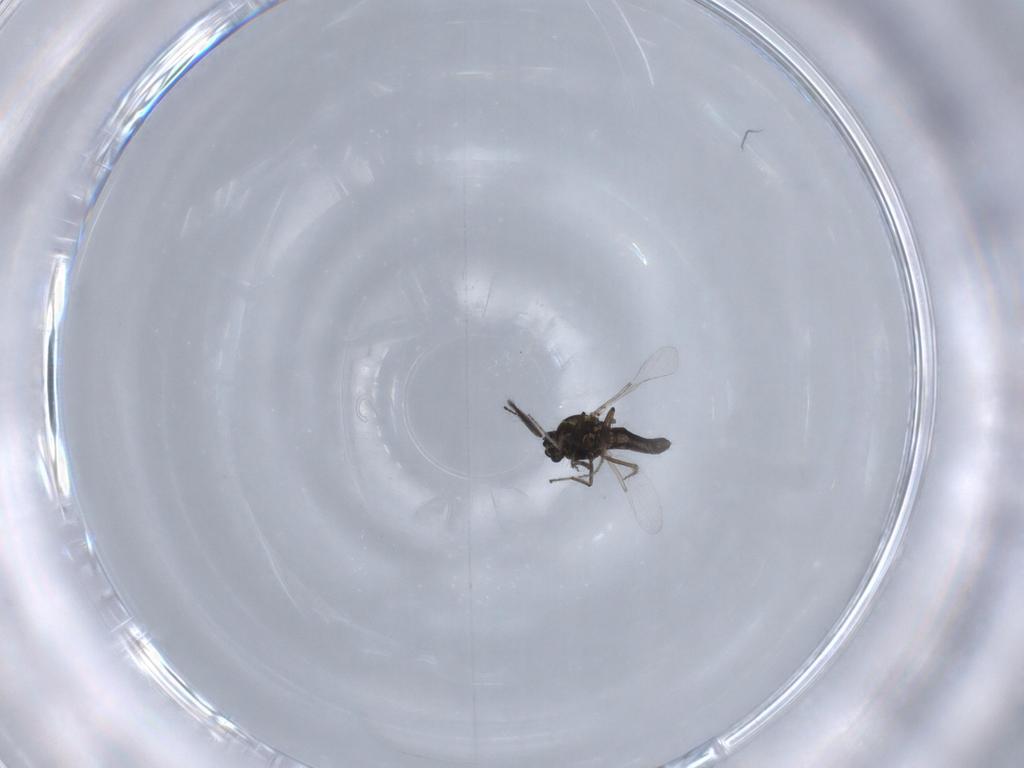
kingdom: Animalia
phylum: Arthropoda
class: Insecta
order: Diptera
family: Ceratopogonidae
